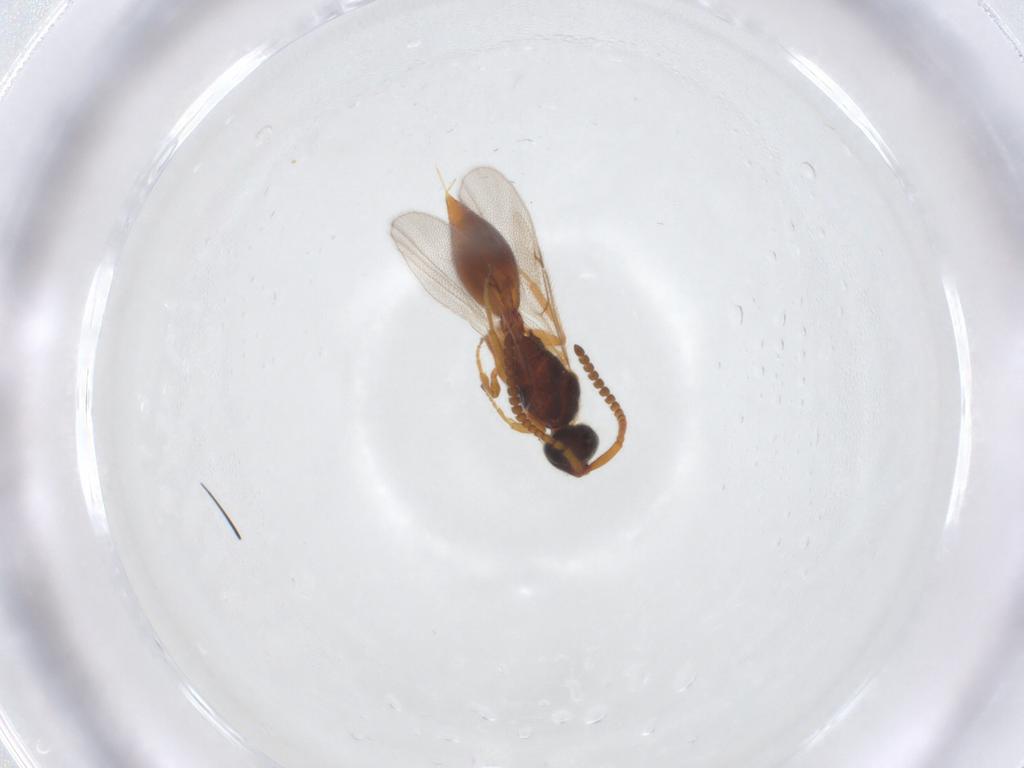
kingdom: Animalia
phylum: Arthropoda
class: Insecta
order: Hymenoptera
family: Diapriidae
